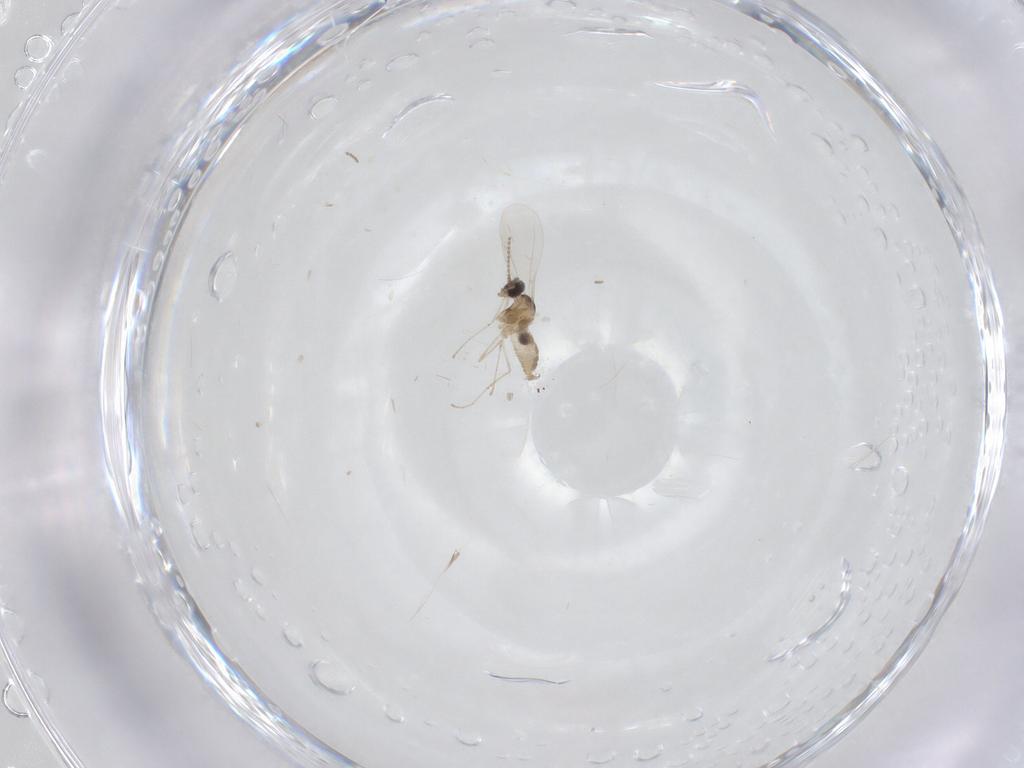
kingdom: Animalia
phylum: Arthropoda
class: Insecta
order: Diptera
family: Cecidomyiidae
